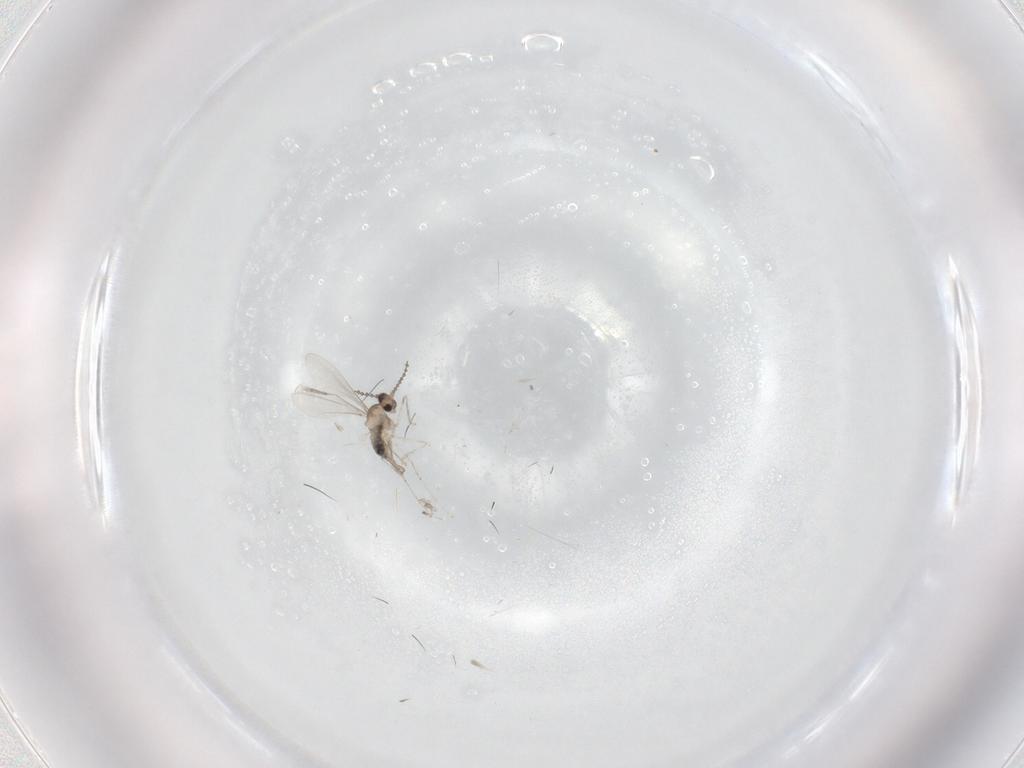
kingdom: Animalia
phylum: Arthropoda
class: Insecta
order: Diptera
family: Cecidomyiidae
